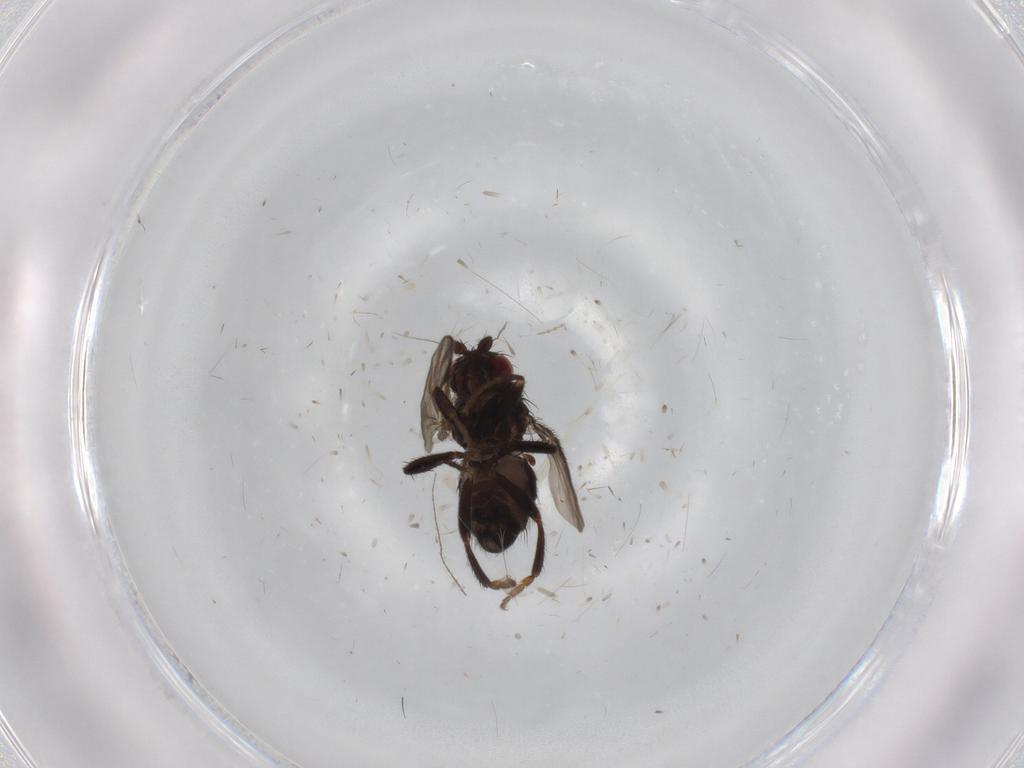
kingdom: Animalia
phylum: Arthropoda
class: Insecta
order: Diptera
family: Sphaeroceridae
